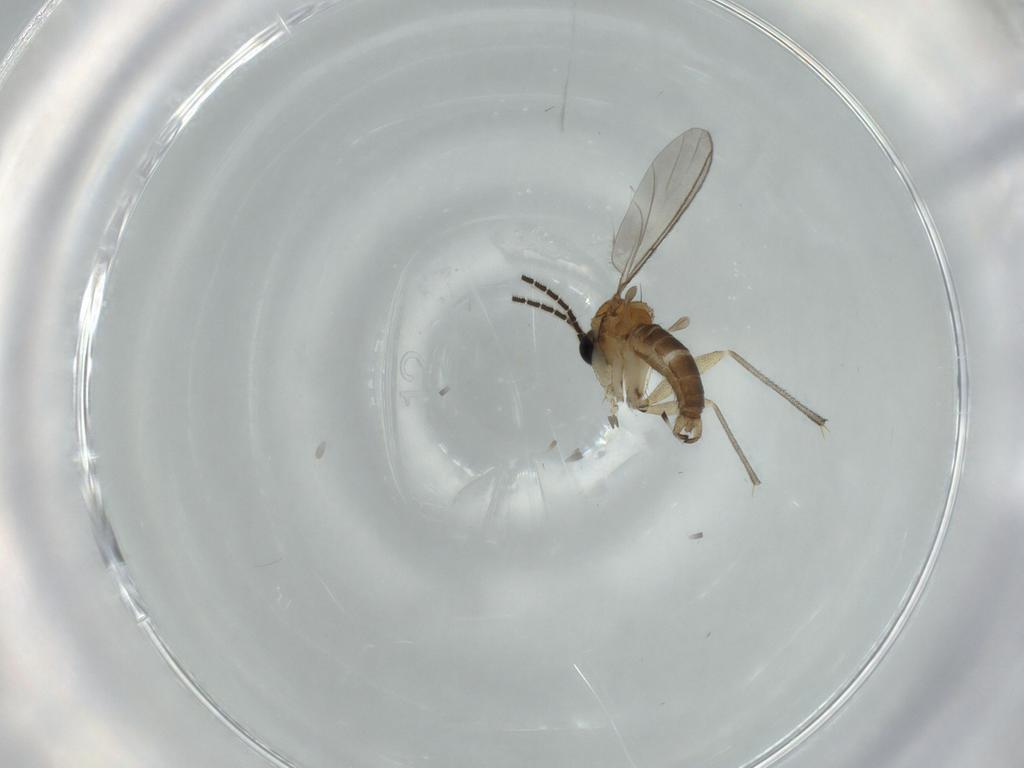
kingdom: Animalia
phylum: Arthropoda
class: Insecta
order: Diptera
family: Sciaridae
